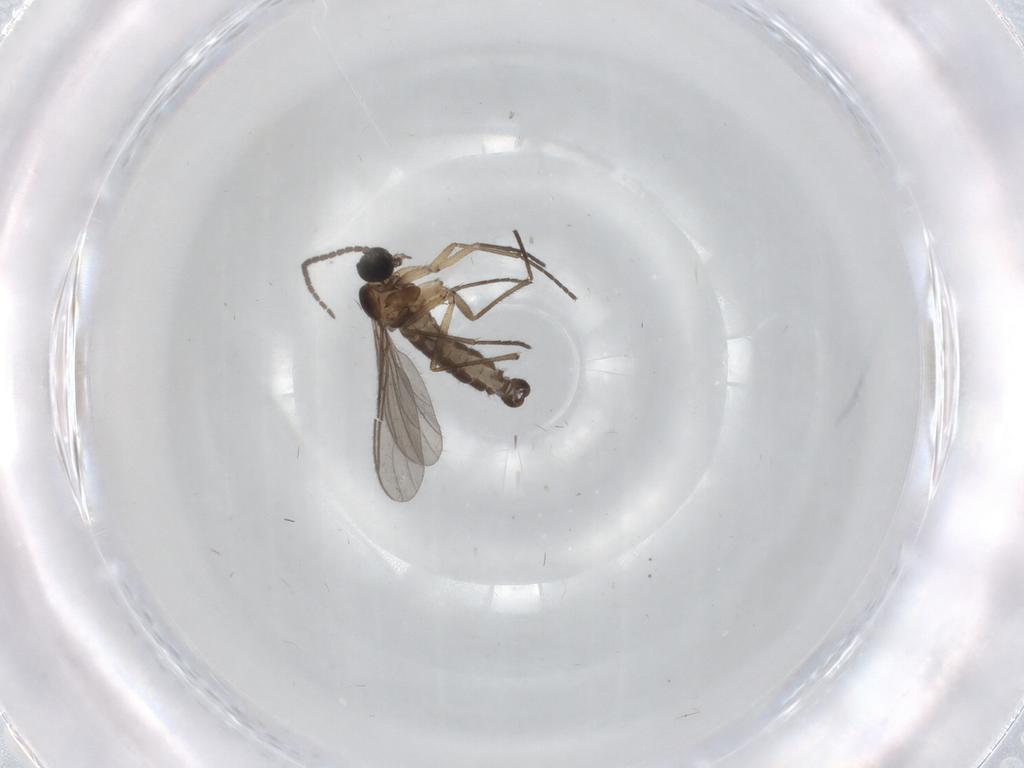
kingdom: Animalia
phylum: Arthropoda
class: Insecta
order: Diptera
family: Sciaridae
